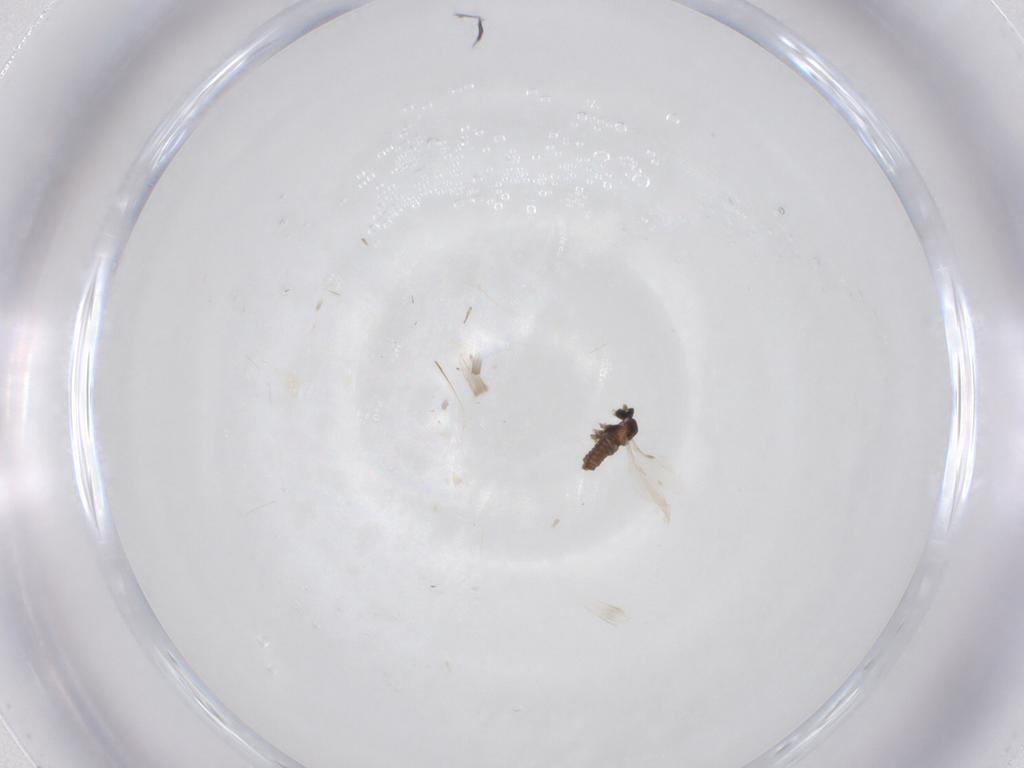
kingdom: Animalia
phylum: Arthropoda
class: Insecta
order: Diptera
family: Cecidomyiidae
